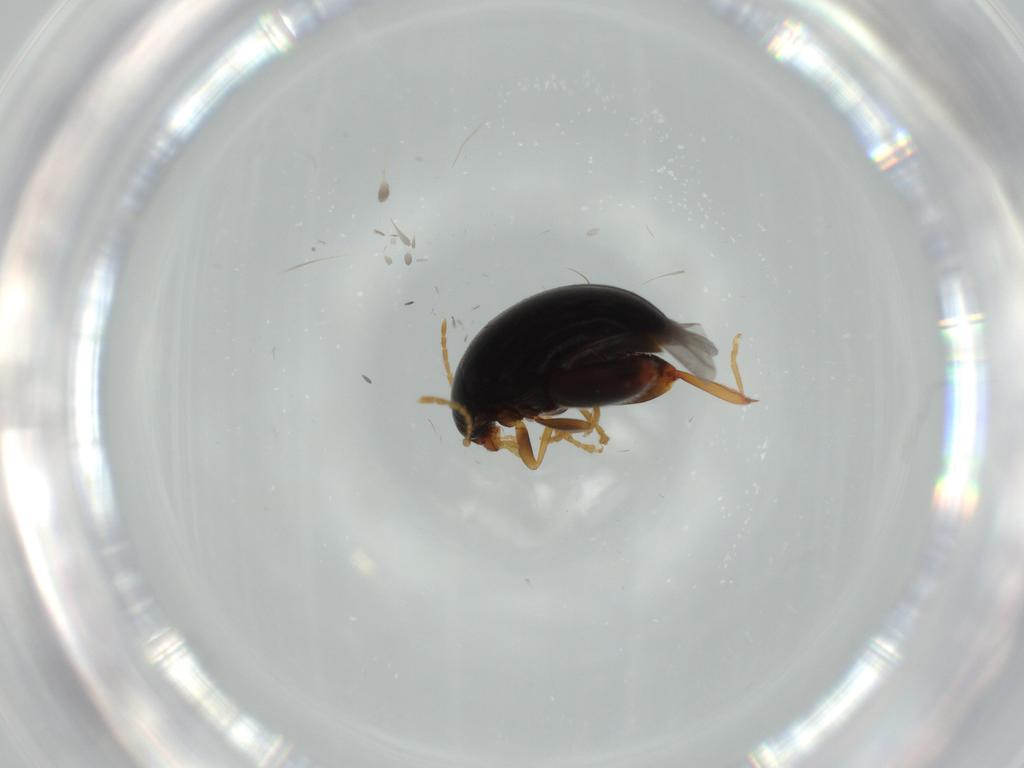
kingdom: Animalia
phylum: Arthropoda
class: Insecta
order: Coleoptera
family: Chrysomelidae
